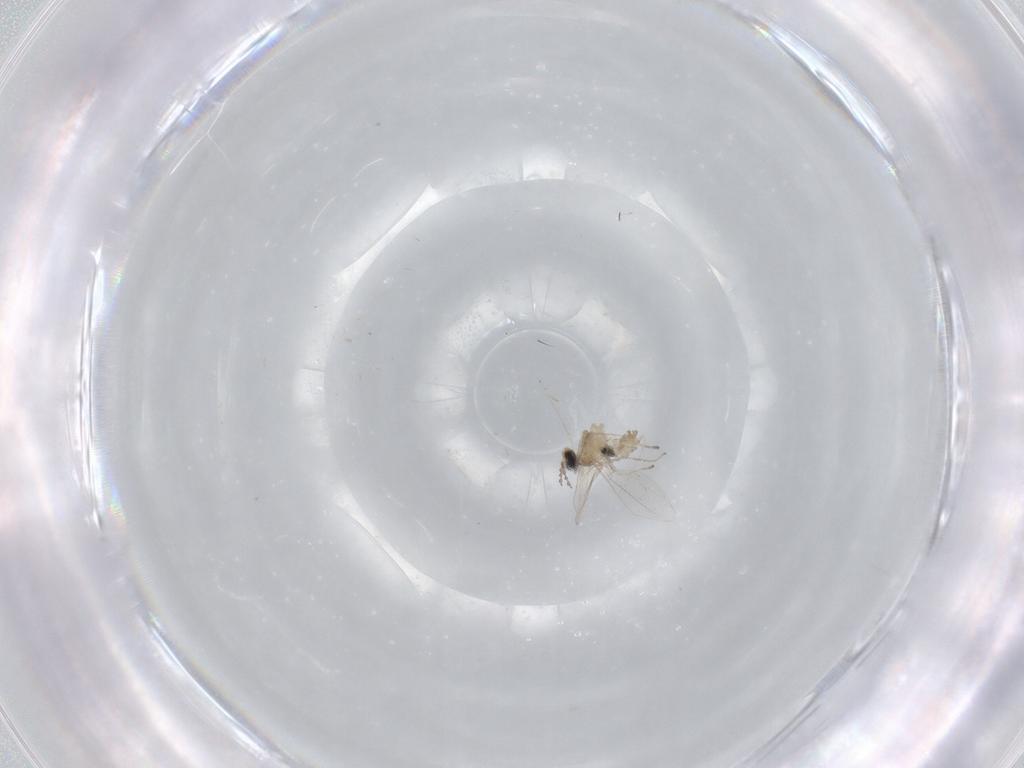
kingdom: Animalia
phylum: Arthropoda
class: Insecta
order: Diptera
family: Cecidomyiidae
